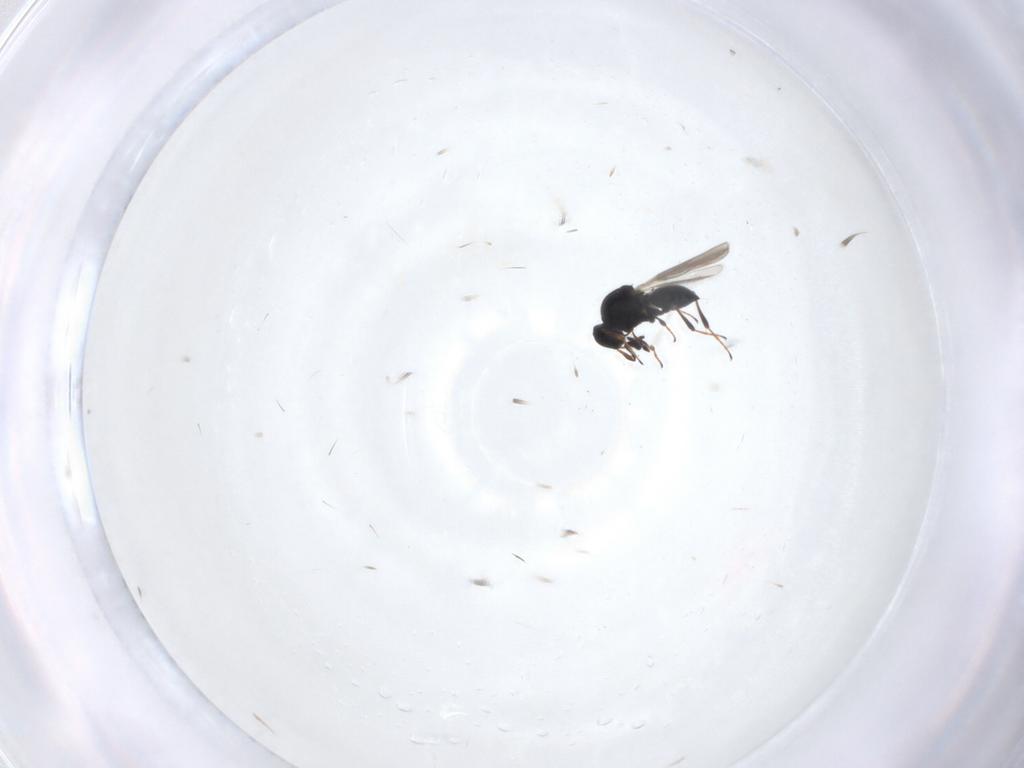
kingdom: Animalia
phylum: Arthropoda
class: Insecta
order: Hymenoptera
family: Platygastridae
